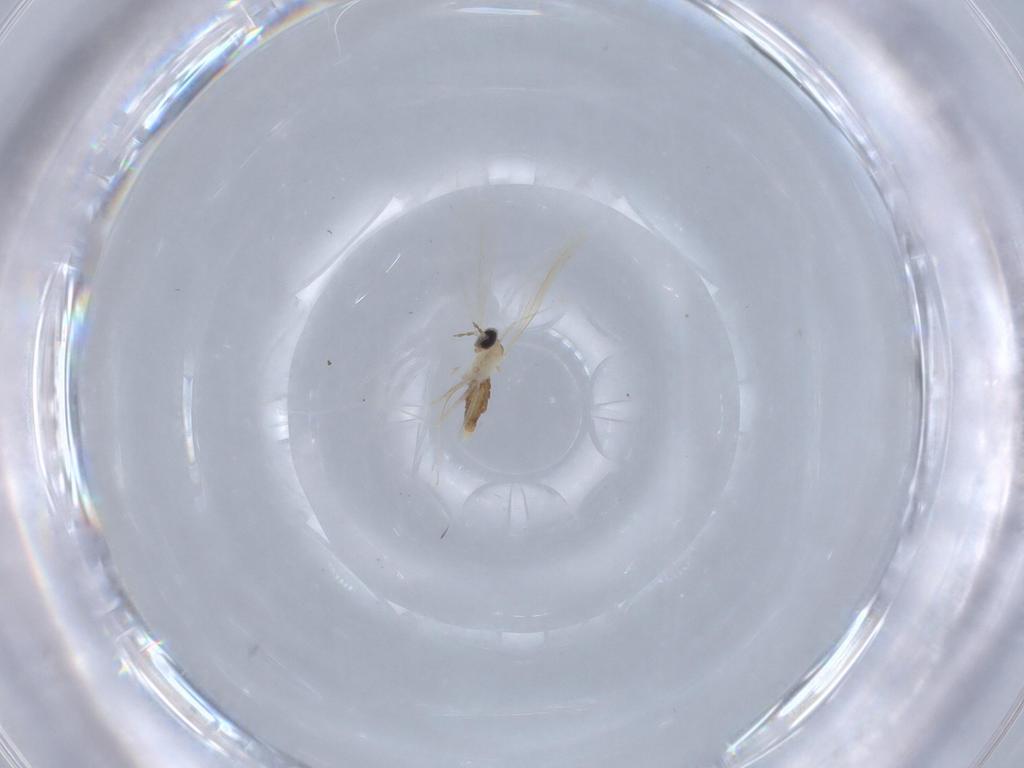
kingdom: Animalia
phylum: Arthropoda
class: Insecta
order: Diptera
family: Cecidomyiidae
